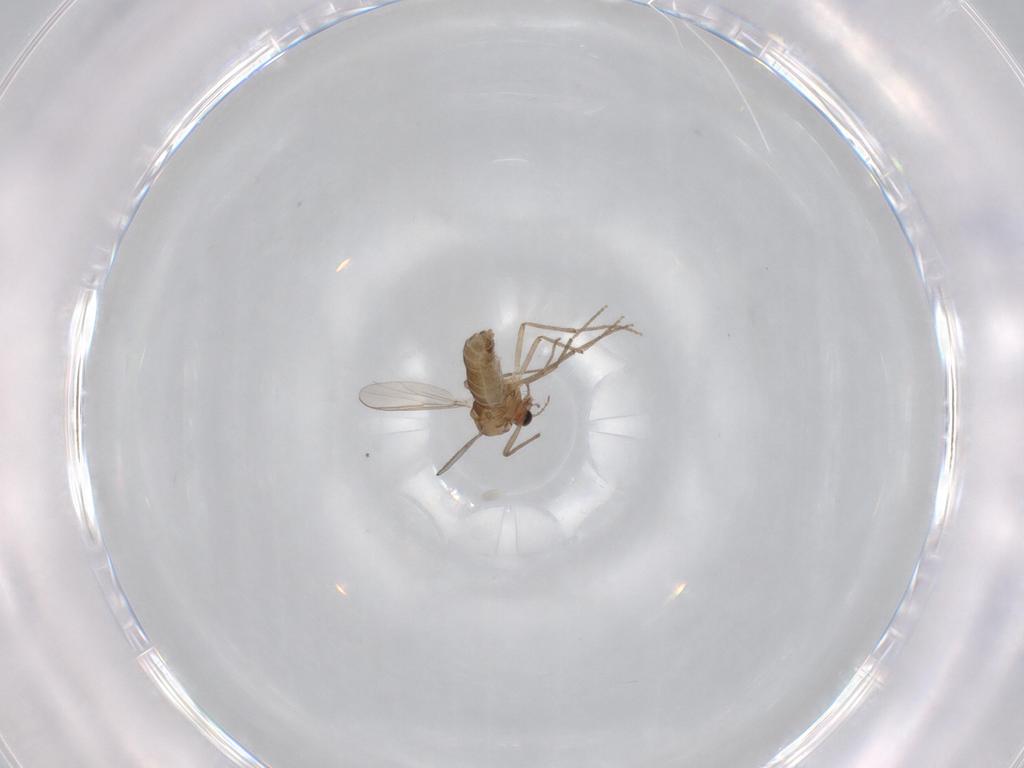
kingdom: Animalia
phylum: Arthropoda
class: Insecta
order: Diptera
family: Chironomidae
